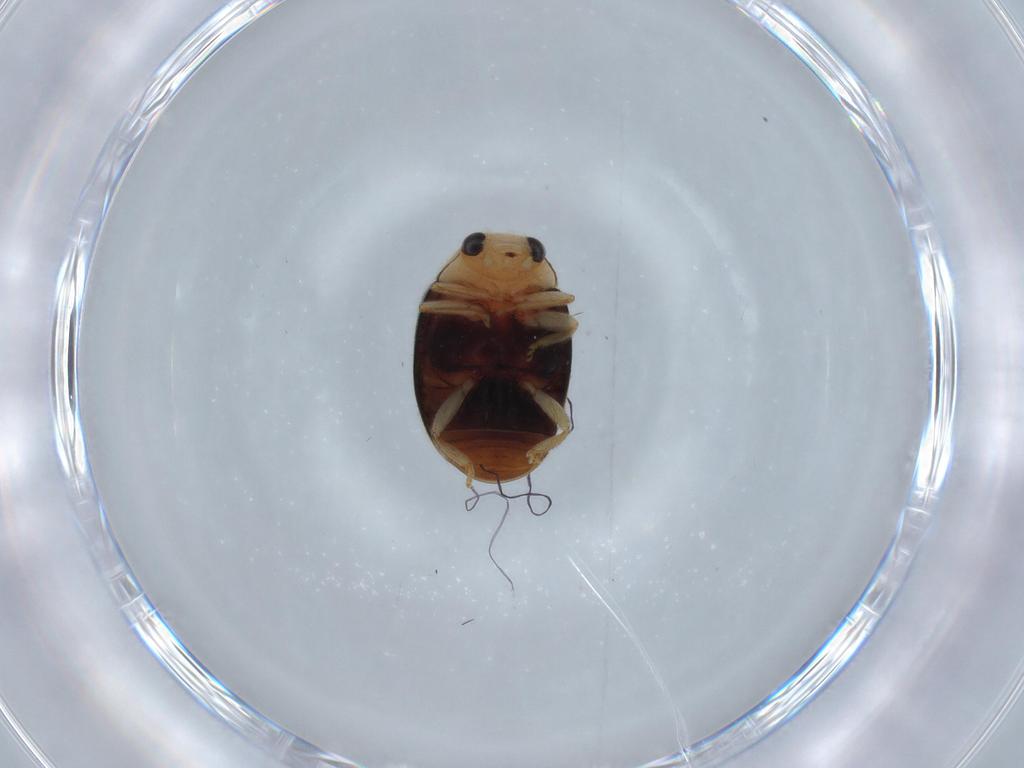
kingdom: Animalia
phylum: Arthropoda
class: Insecta
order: Coleoptera
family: Coccinellidae
